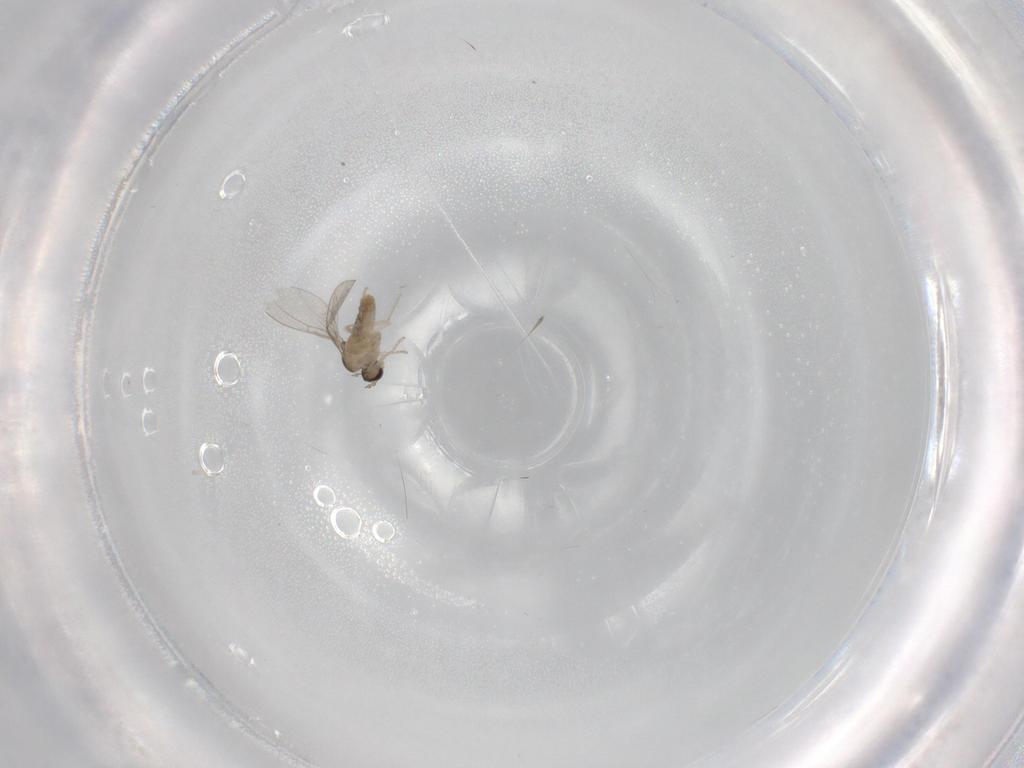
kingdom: Animalia
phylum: Arthropoda
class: Insecta
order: Diptera
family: Cecidomyiidae
